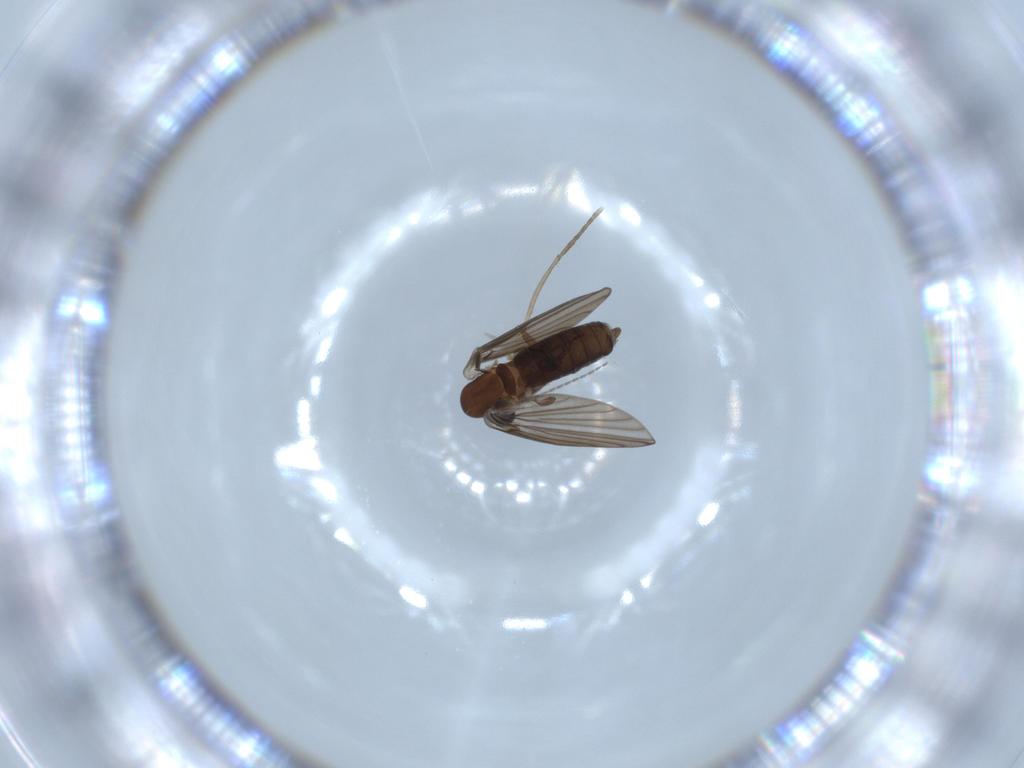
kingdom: Animalia
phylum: Arthropoda
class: Insecta
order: Diptera
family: Psychodidae
